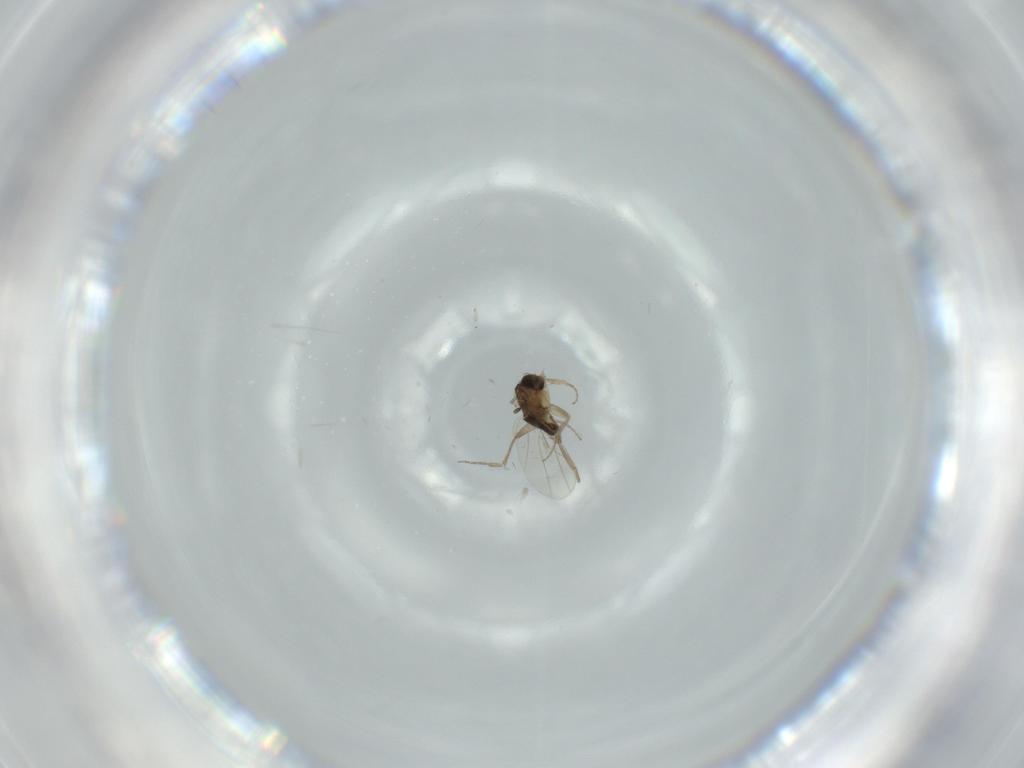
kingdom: Animalia
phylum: Arthropoda
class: Insecta
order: Diptera
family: Phoridae
